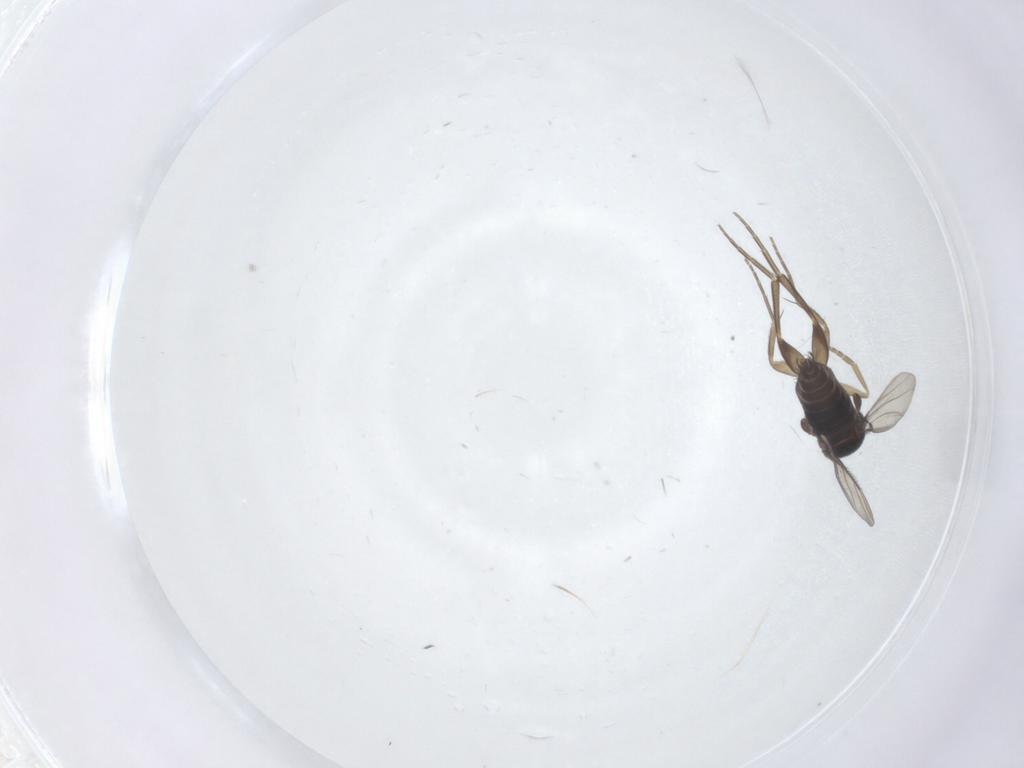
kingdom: Animalia
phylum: Arthropoda
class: Insecta
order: Diptera
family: Phoridae
